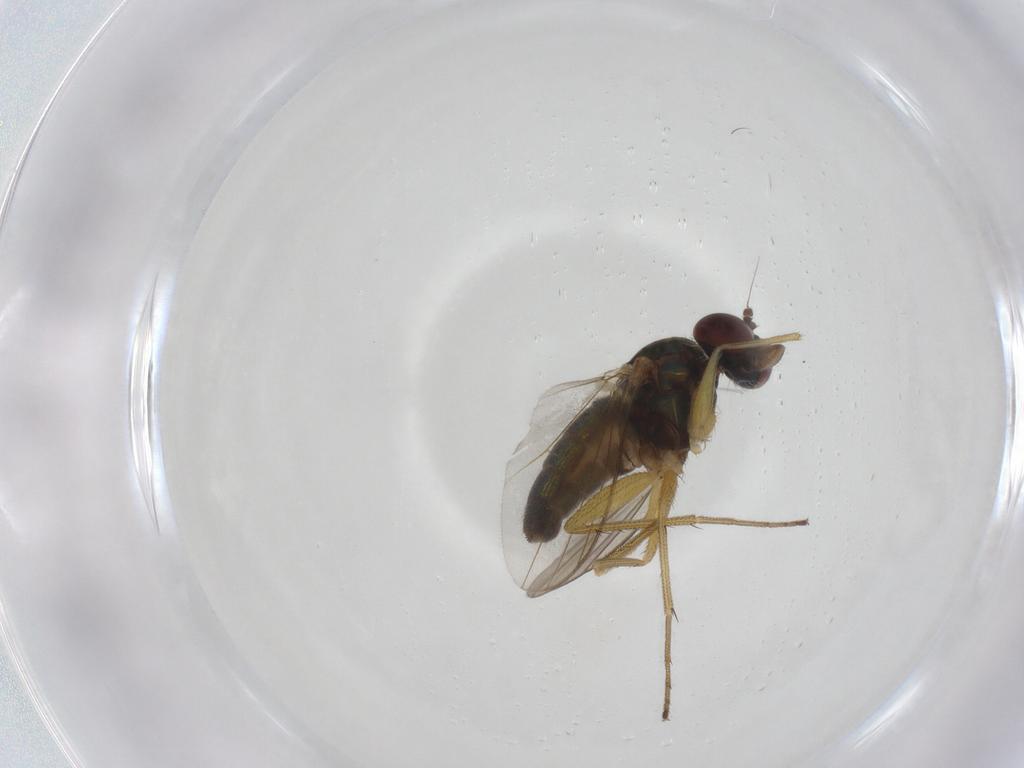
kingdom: Animalia
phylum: Arthropoda
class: Insecta
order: Diptera
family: Dolichopodidae
